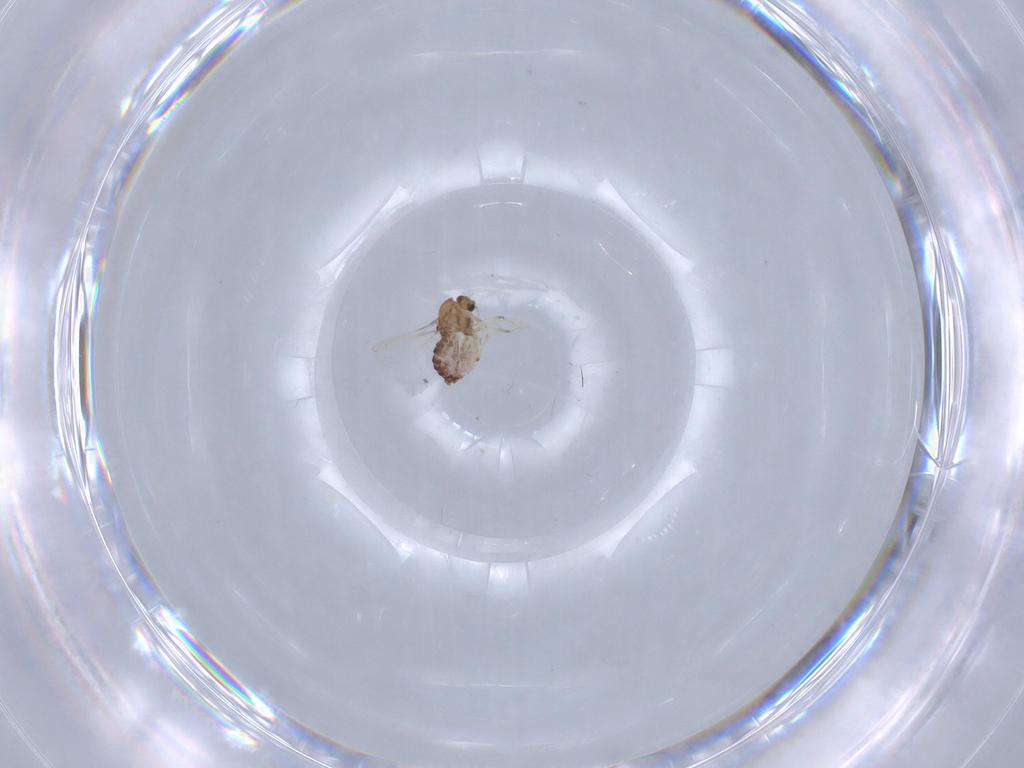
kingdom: Animalia
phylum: Arthropoda
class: Insecta
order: Diptera
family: Chironomidae
